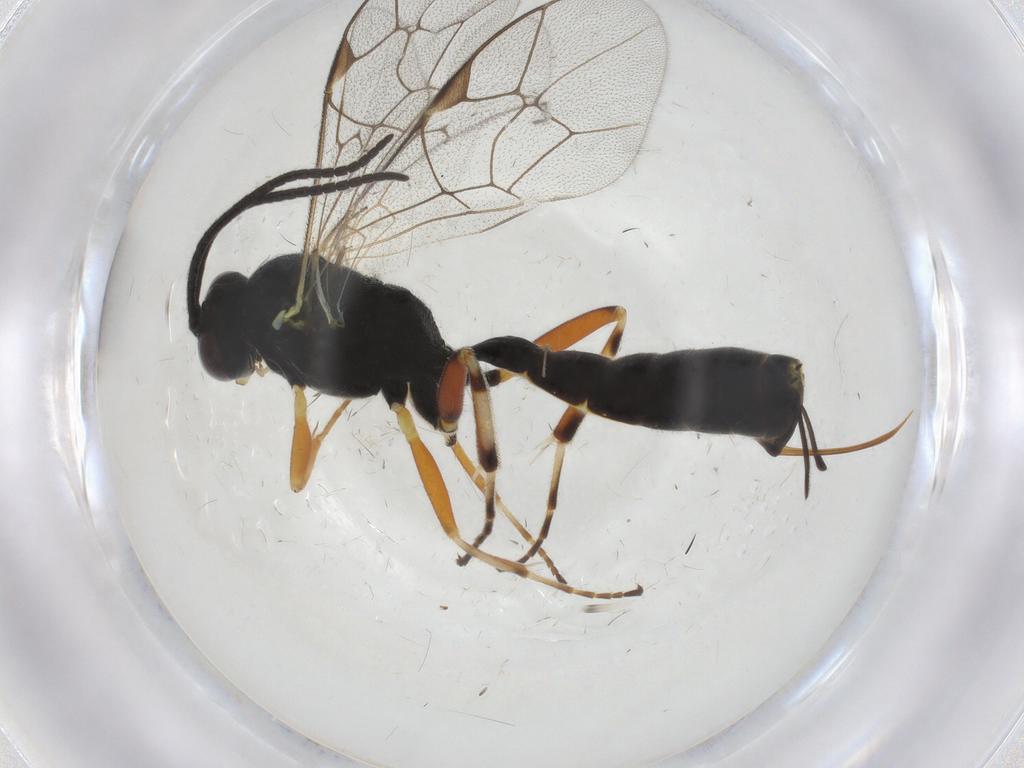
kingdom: Animalia
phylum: Arthropoda
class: Insecta
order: Hymenoptera
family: Ichneumonidae
